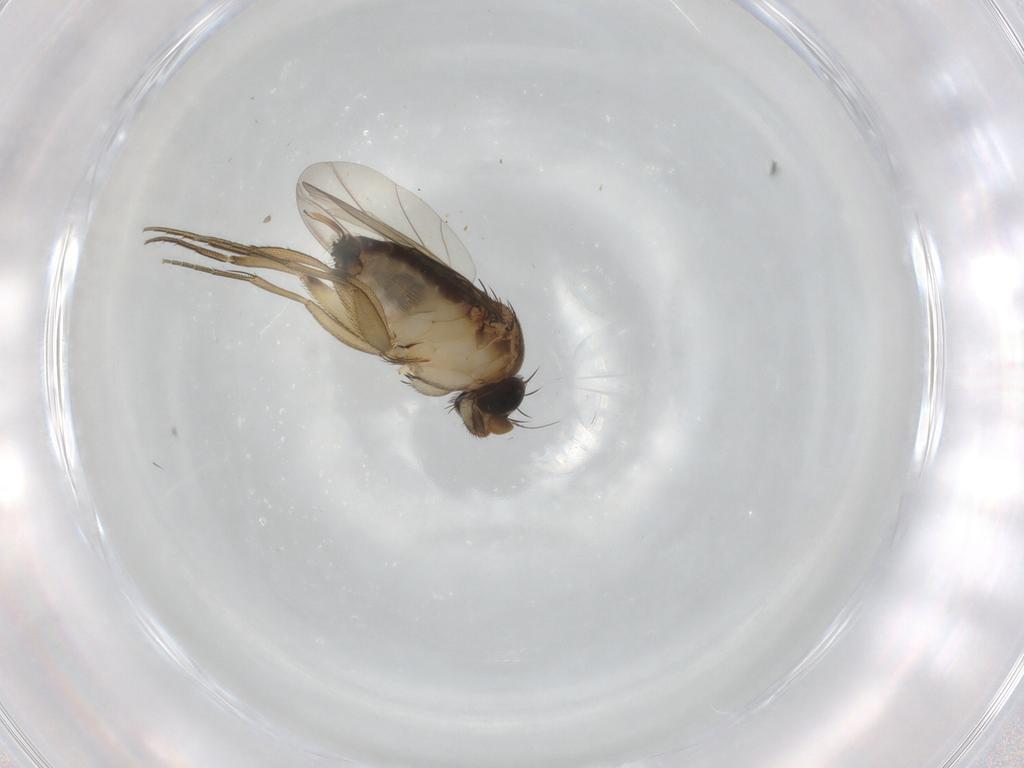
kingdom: Animalia
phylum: Arthropoda
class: Insecta
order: Diptera
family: Phoridae
